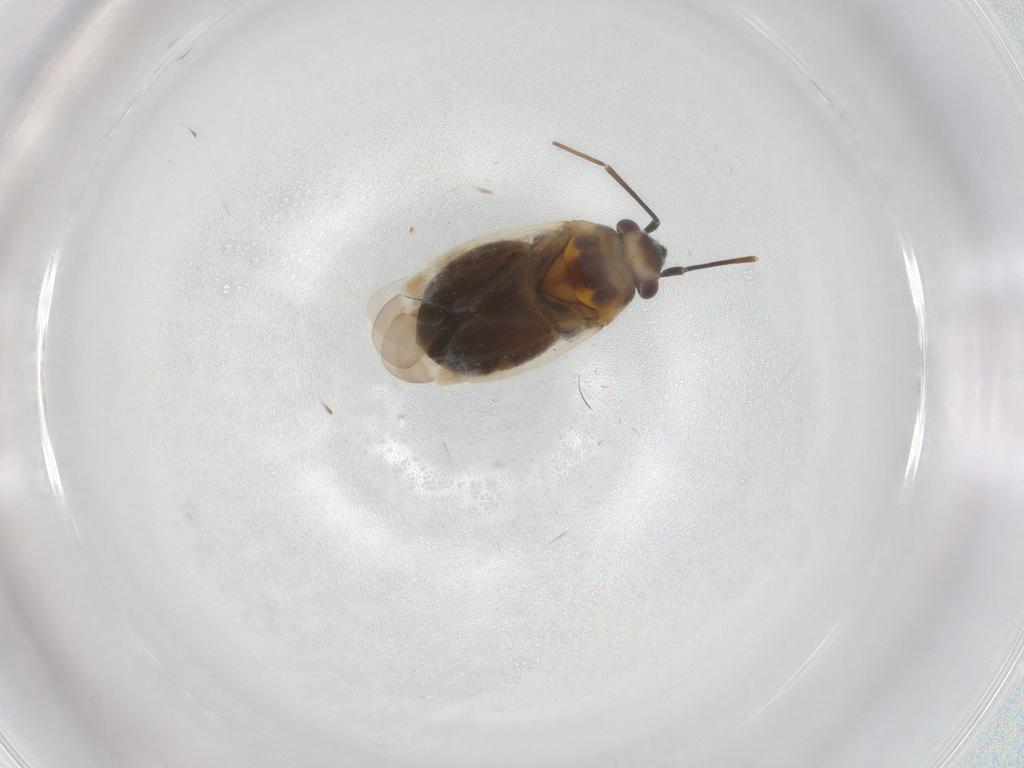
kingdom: Animalia
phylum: Arthropoda
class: Insecta
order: Hemiptera
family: Miridae
